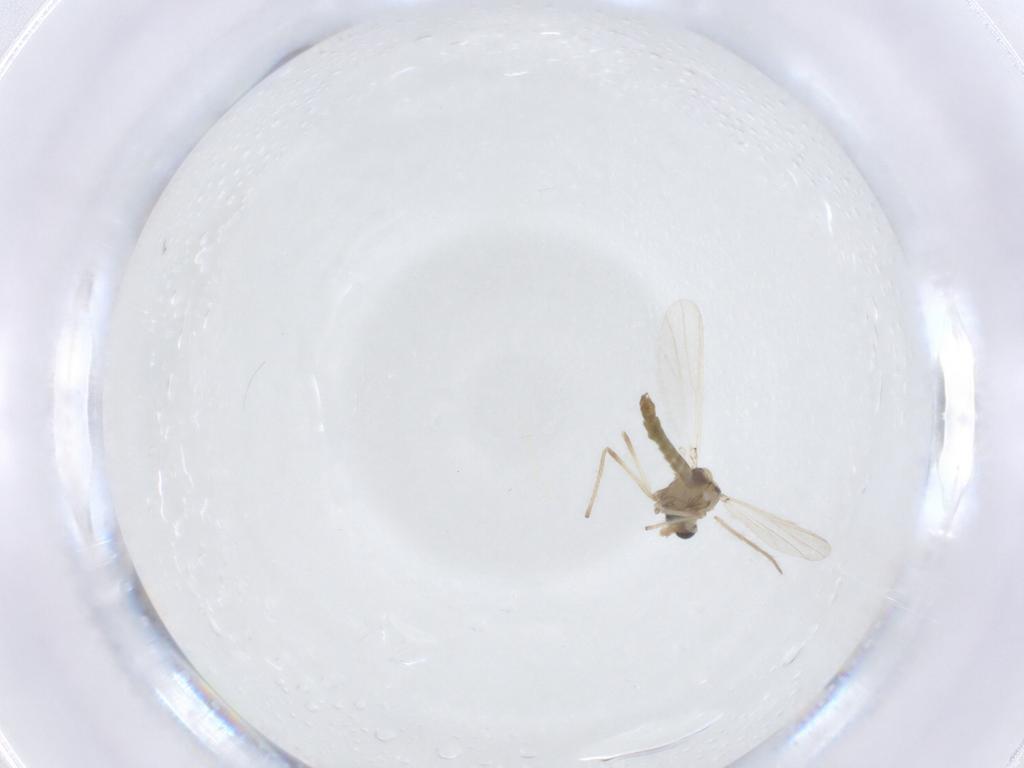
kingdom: Animalia
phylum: Arthropoda
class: Insecta
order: Diptera
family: Chironomidae
